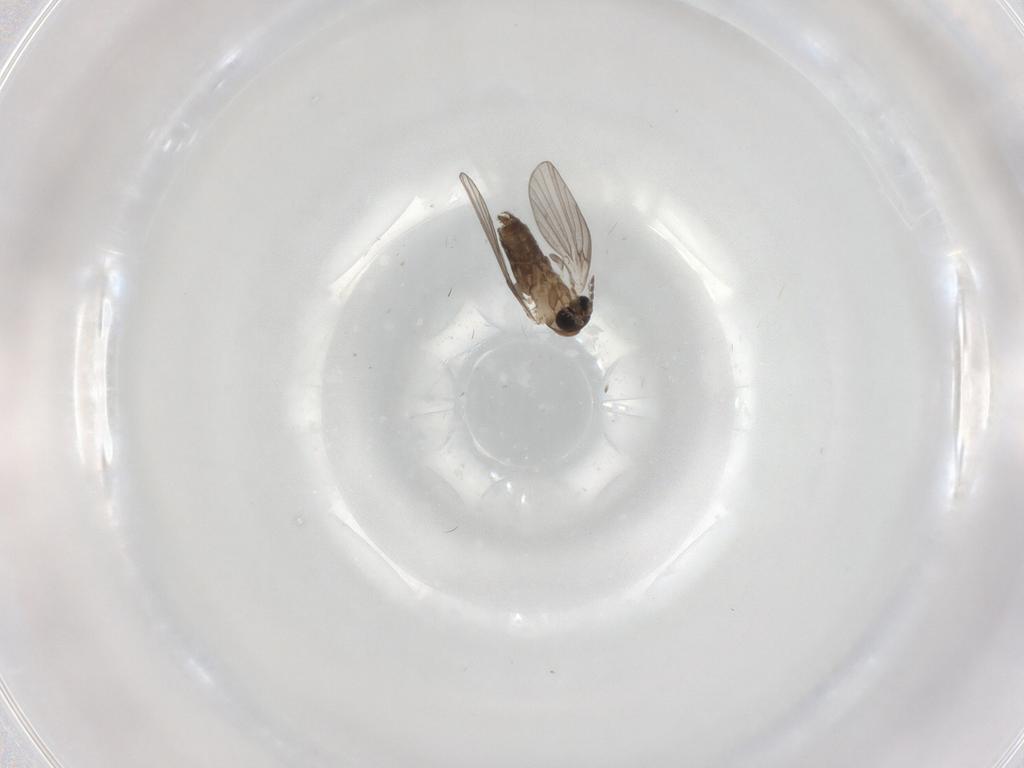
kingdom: Animalia
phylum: Arthropoda
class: Insecta
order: Diptera
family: Psychodidae
